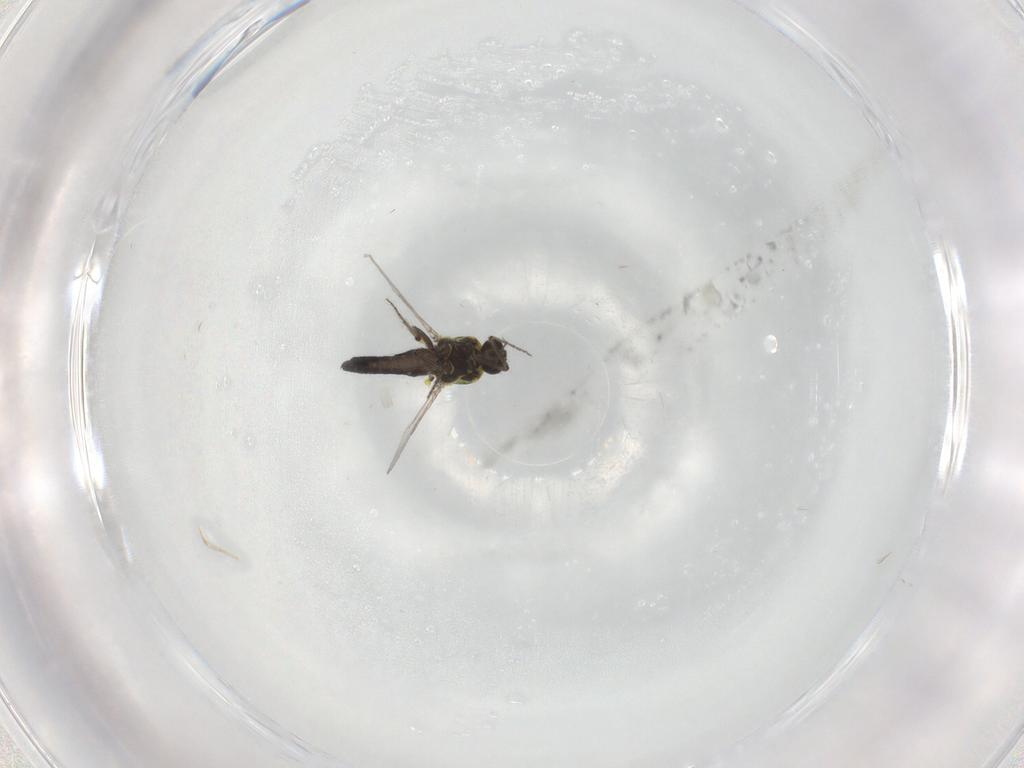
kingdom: Animalia
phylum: Arthropoda
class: Insecta
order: Diptera
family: Ceratopogonidae
